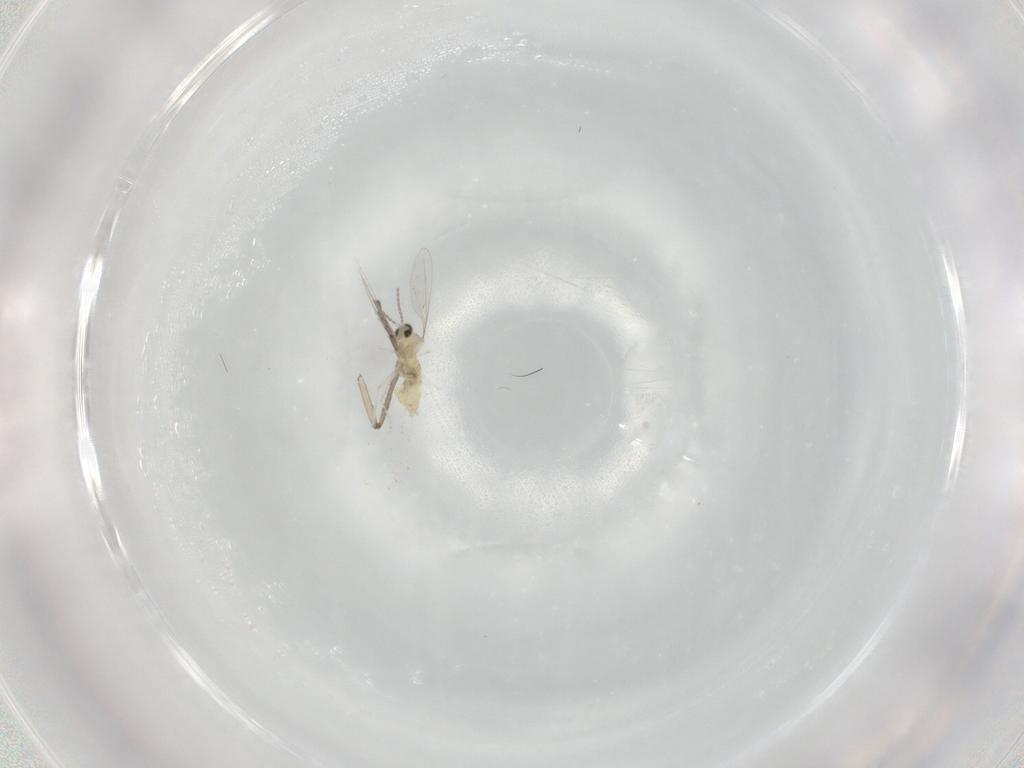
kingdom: Animalia
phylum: Arthropoda
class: Insecta
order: Diptera
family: Psychodidae
